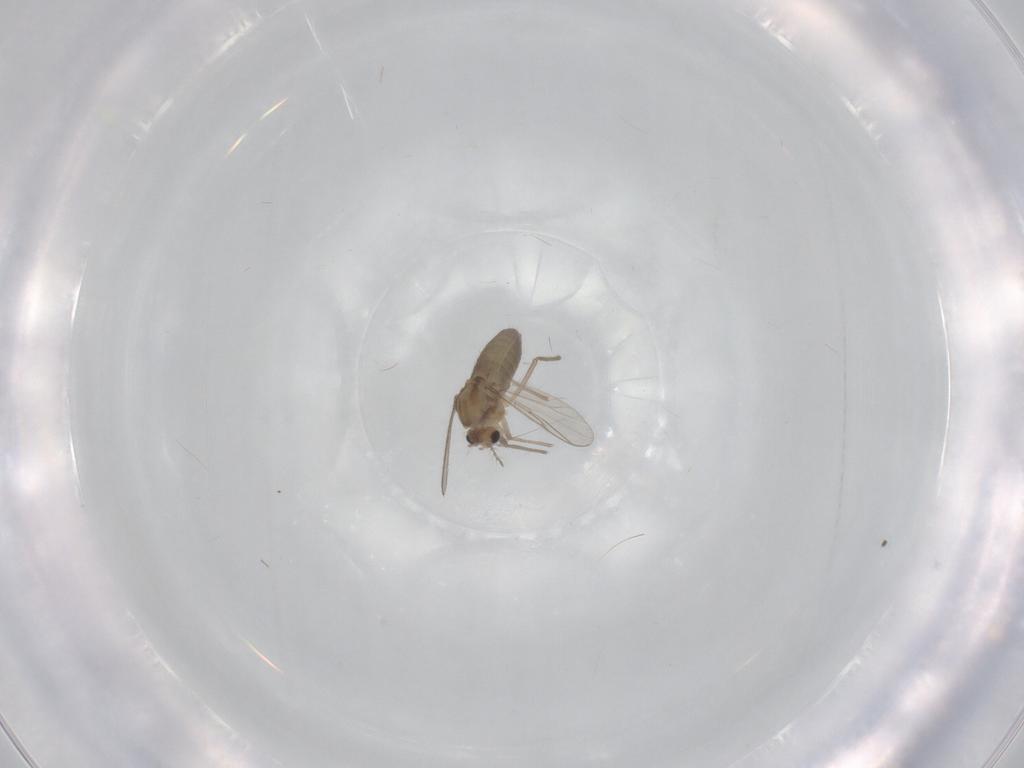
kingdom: Animalia
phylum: Arthropoda
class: Insecta
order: Diptera
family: Chironomidae
